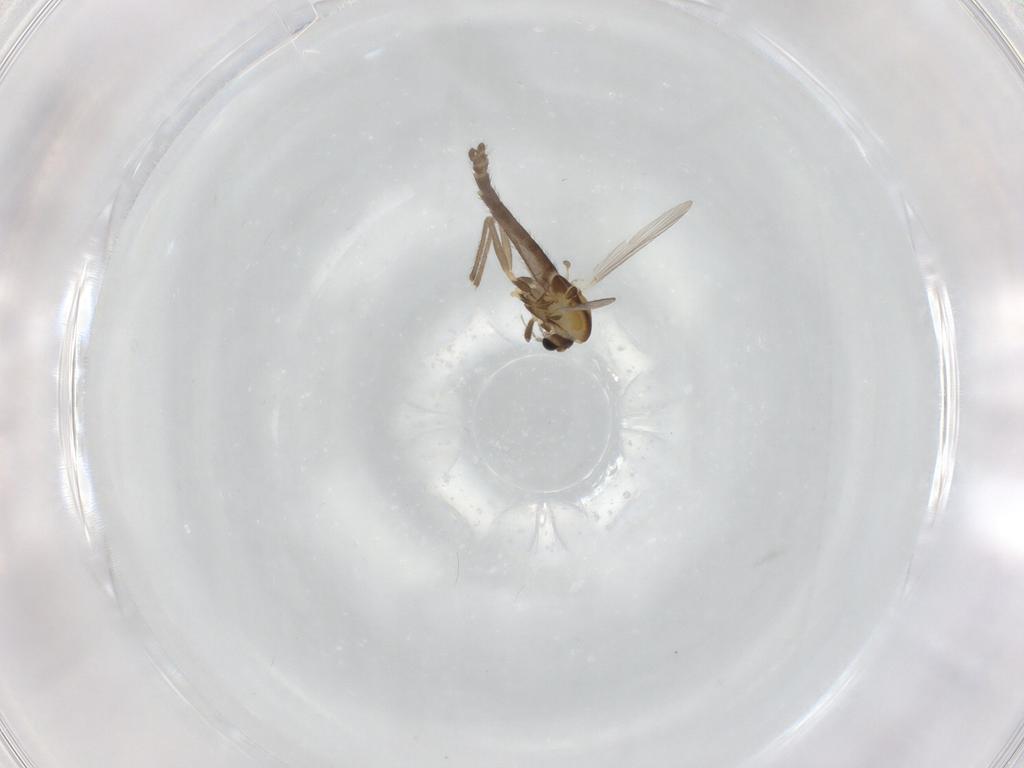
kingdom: Animalia
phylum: Arthropoda
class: Insecta
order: Diptera
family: Chironomidae
